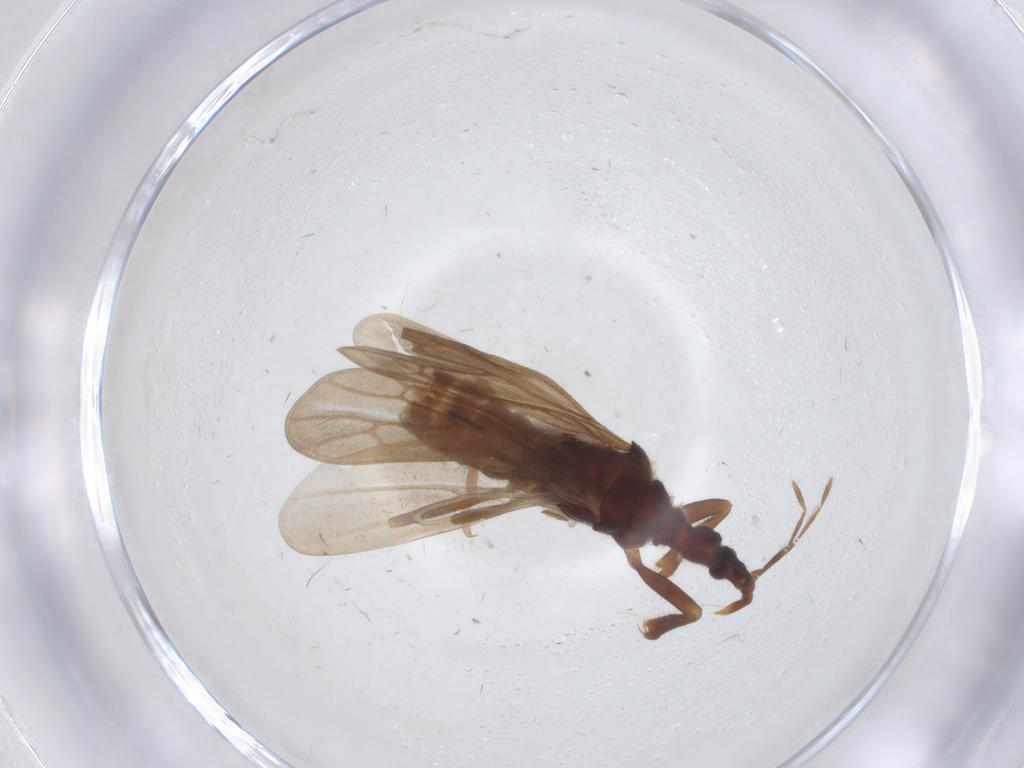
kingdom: Animalia
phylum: Arthropoda
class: Insecta
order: Hemiptera
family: Enicocephalidae
